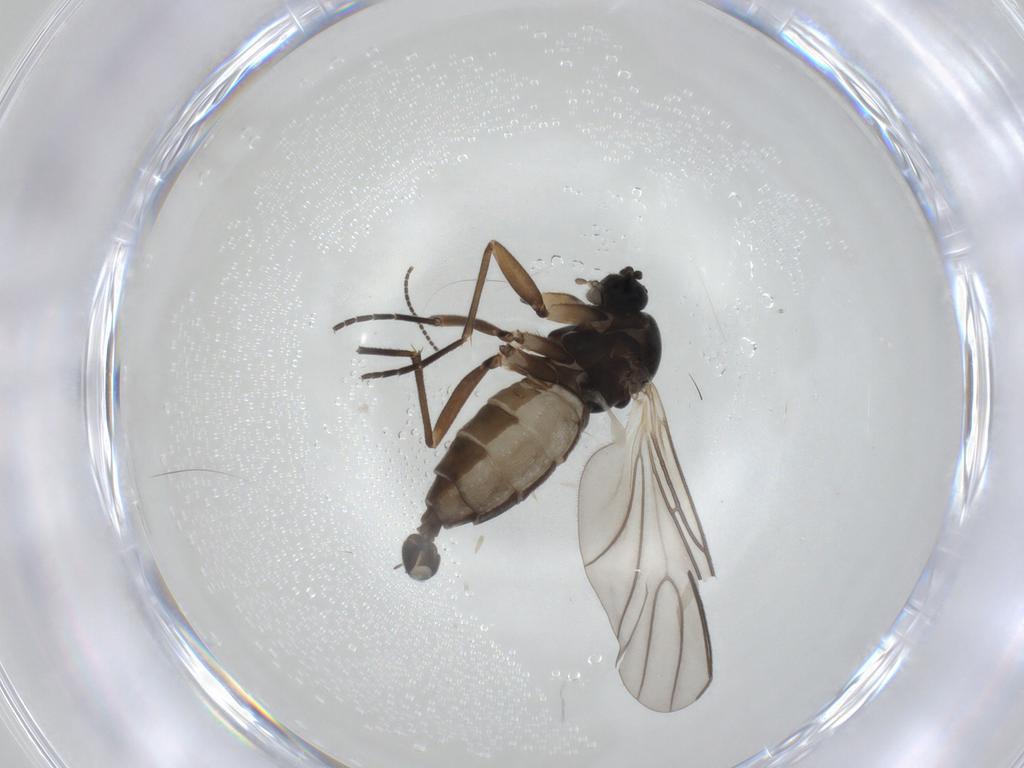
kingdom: Animalia
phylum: Arthropoda
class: Insecta
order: Diptera
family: Sciaridae
